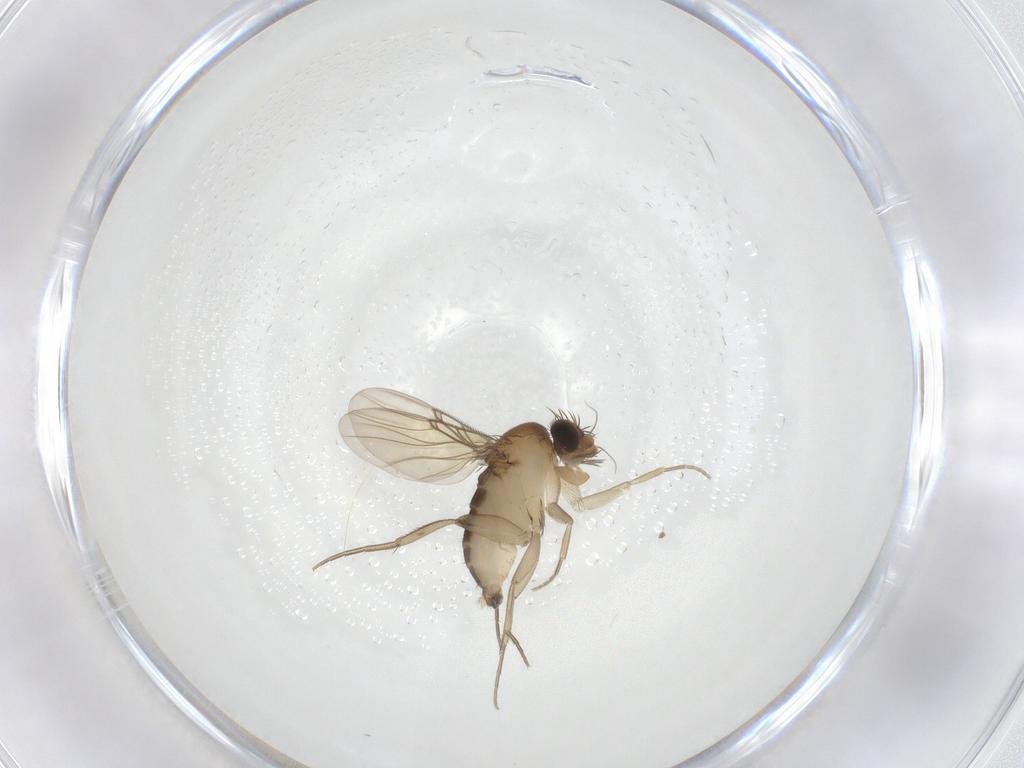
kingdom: Animalia
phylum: Arthropoda
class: Insecta
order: Diptera
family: Phoridae
